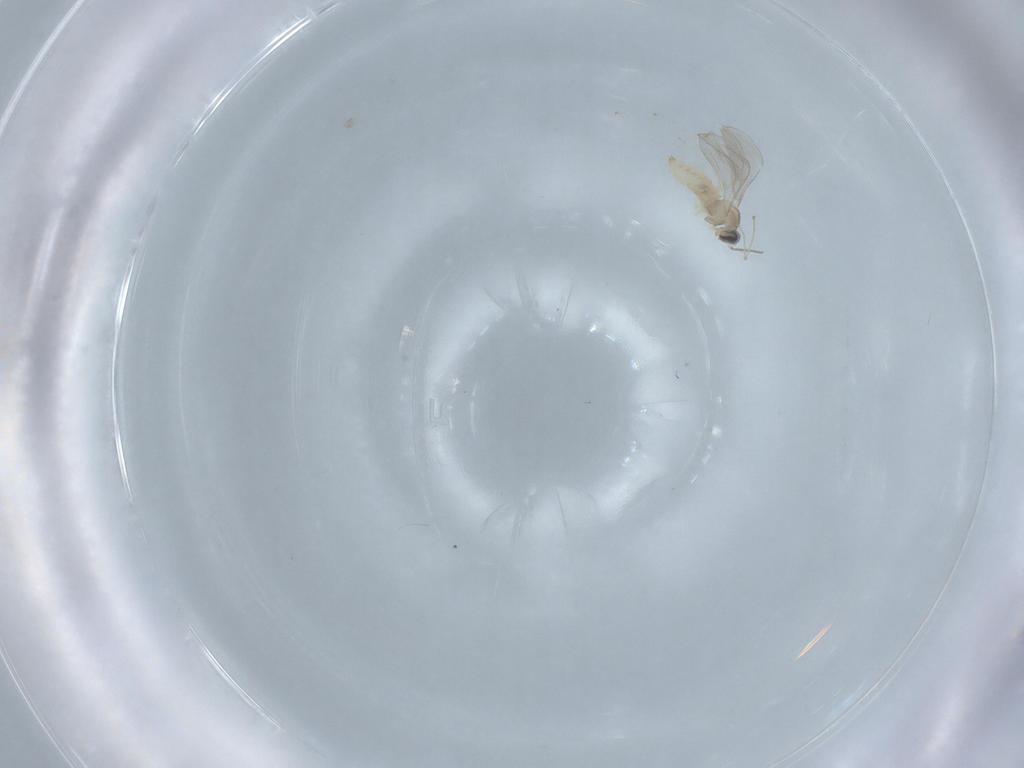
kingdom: Animalia
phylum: Arthropoda
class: Insecta
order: Diptera
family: Cecidomyiidae
